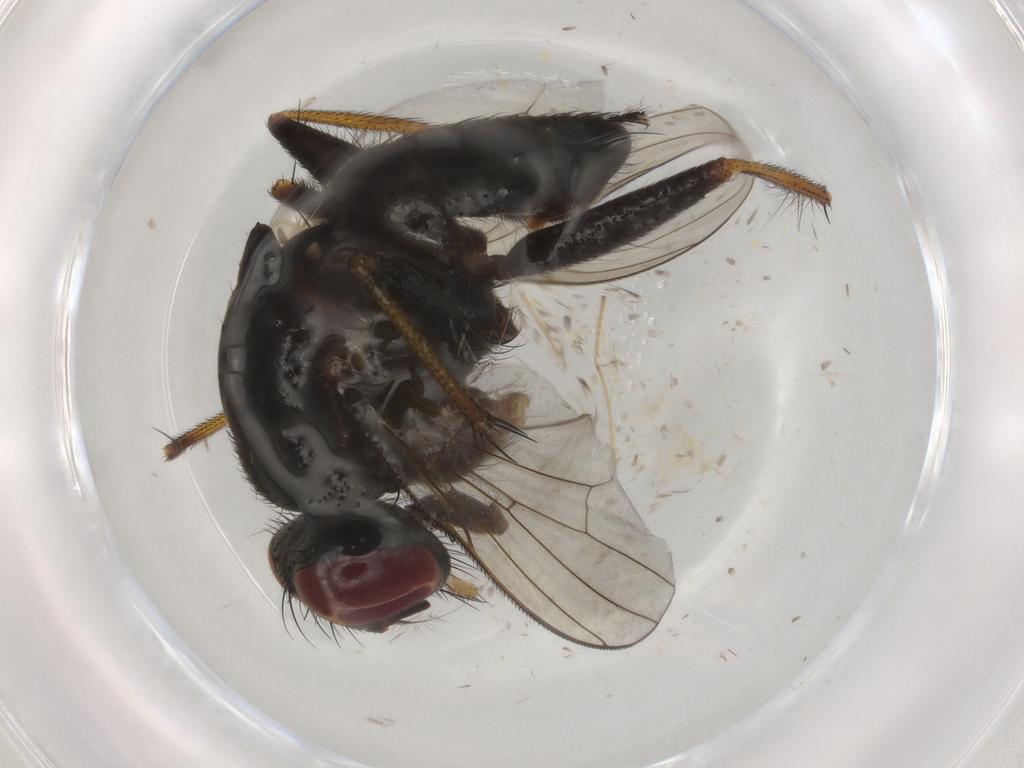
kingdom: Animalia
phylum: Arthropoda
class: Insecta
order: Diptera
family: Muscidae
